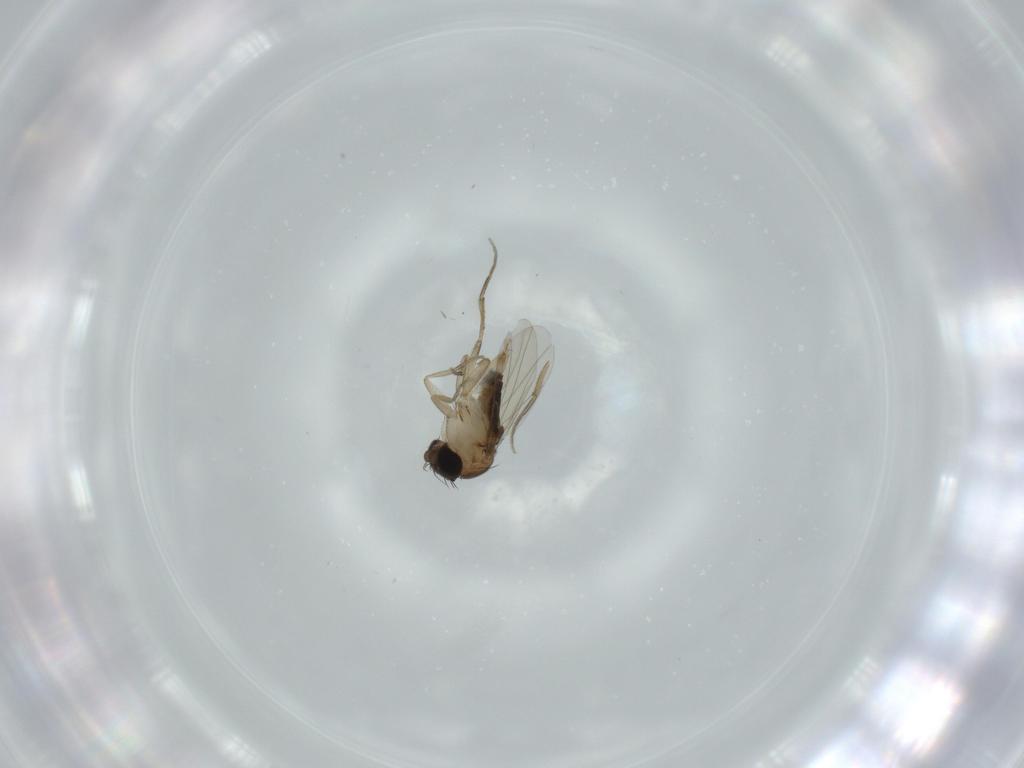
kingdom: Animalia
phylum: Arthropoda
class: Insecta
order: Diptera
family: Phoridae
